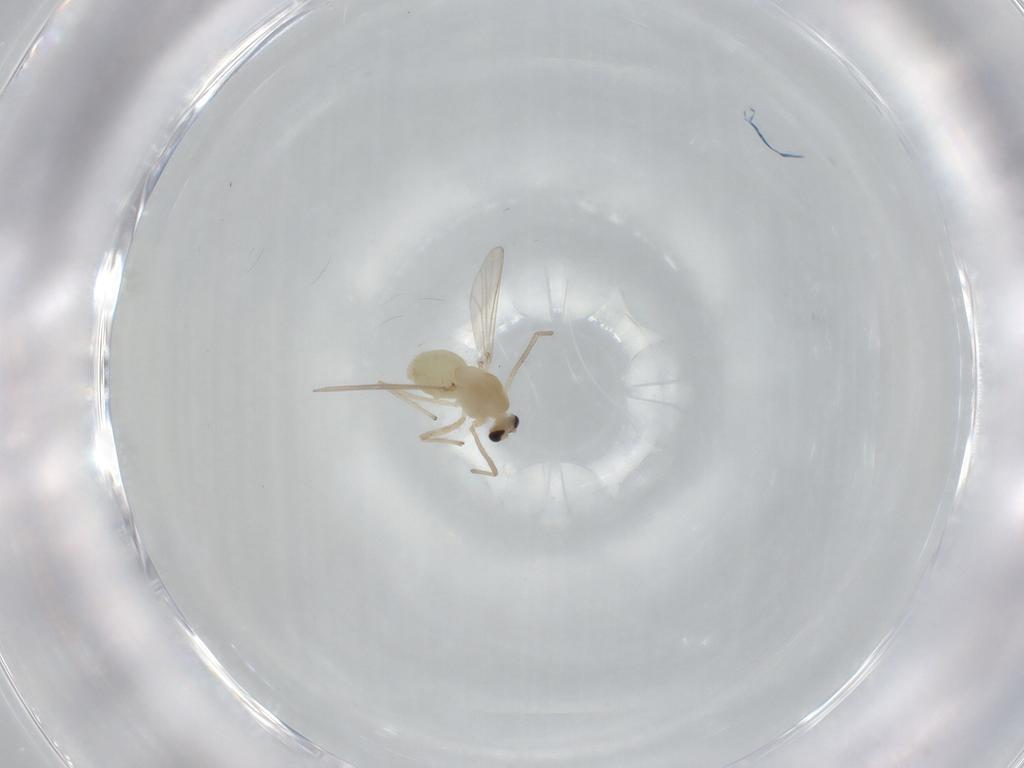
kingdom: Animalia
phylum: Arthropoda
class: Insecta
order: Diptera
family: Chironomidae
